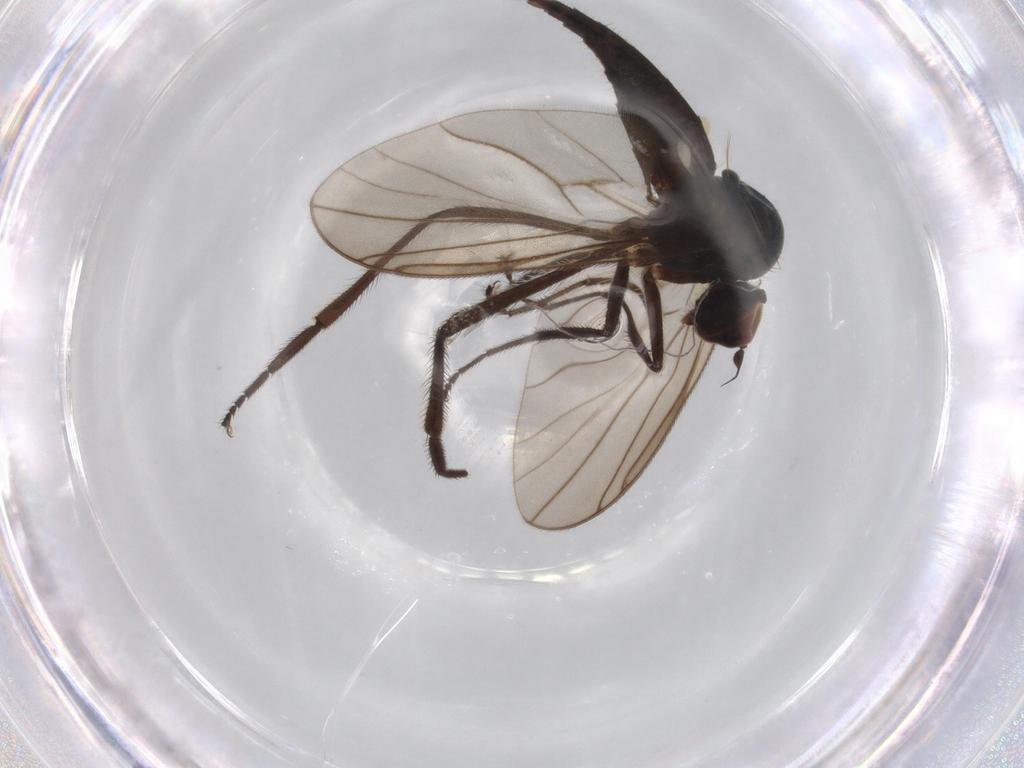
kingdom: Animalia
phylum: Arthropoda
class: Insecta
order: Diptera
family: Hybotidae
